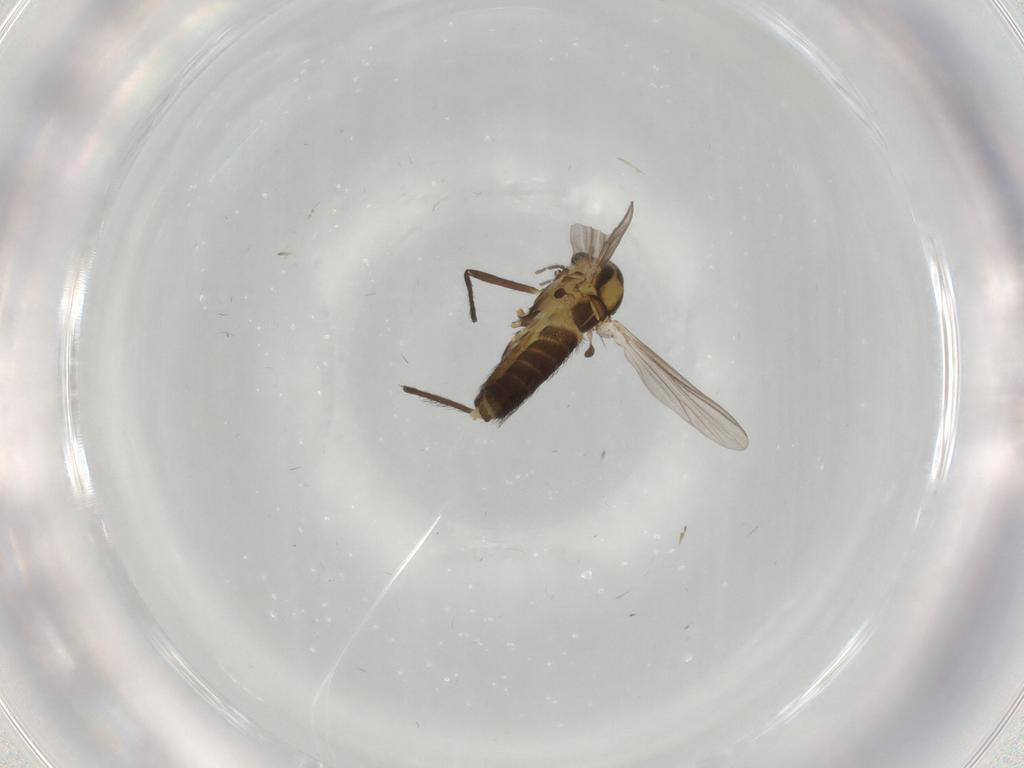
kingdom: Animalia
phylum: Arthropoda
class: Insecta
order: Diptera
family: Chironomidae
